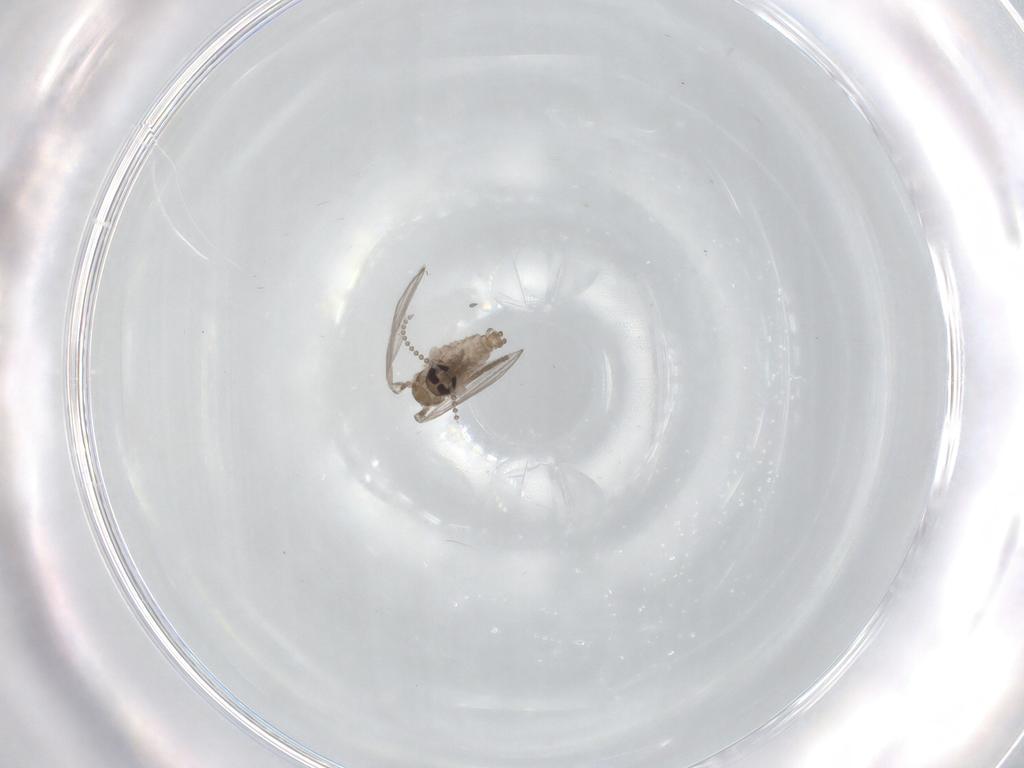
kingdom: Animalia
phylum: Arthropoda
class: Insecta
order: Diptera
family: Psychodidae
